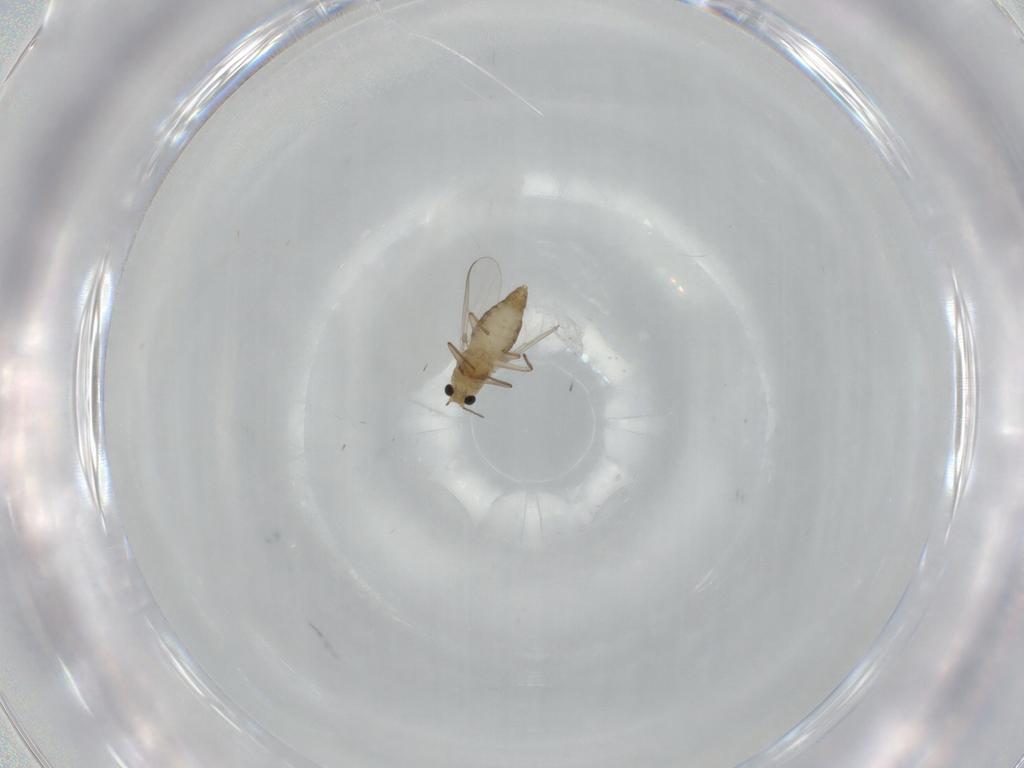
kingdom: Animalia
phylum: Arthropoda
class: Insecta
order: Diptera
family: Chironomidae
